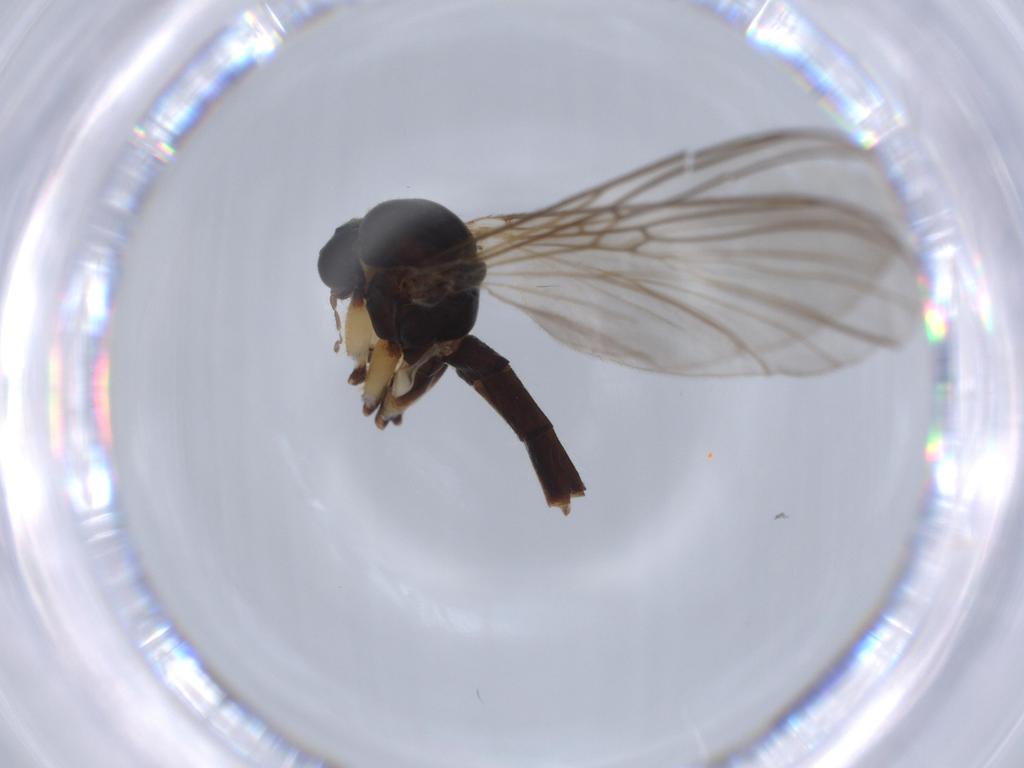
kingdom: Animalia
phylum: Arthropoda
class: Insecta
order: Diptera
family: Sciaridae
